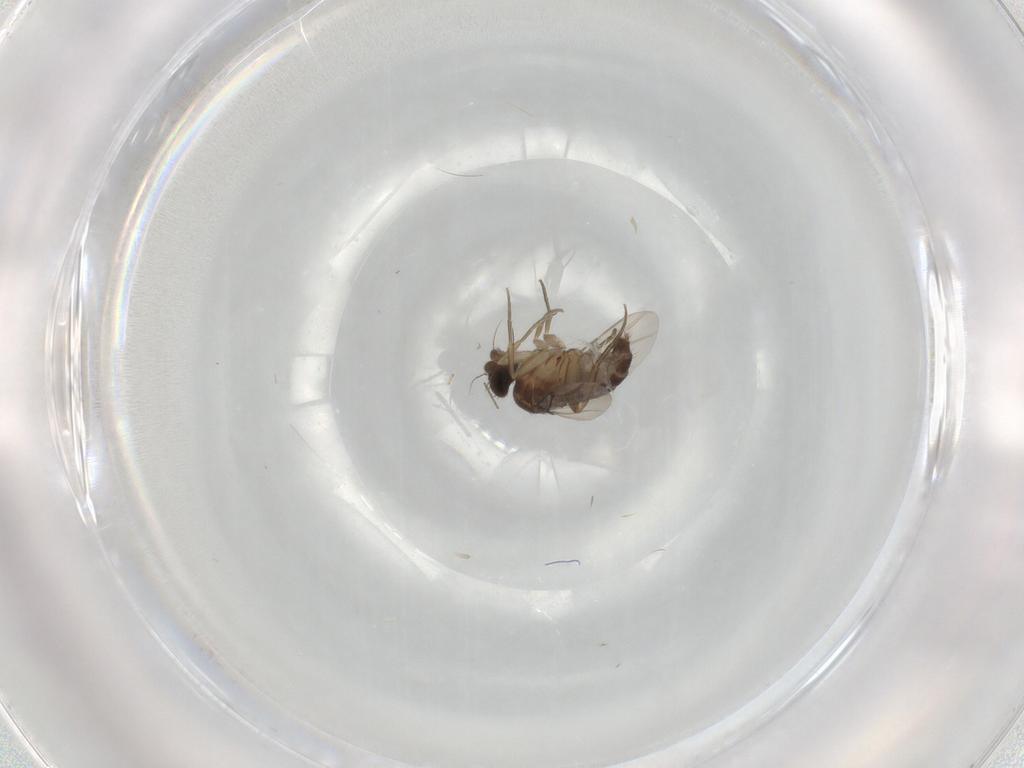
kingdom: Animalia
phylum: Arthropoda
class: Insecta
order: Diptera
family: Phoridae
